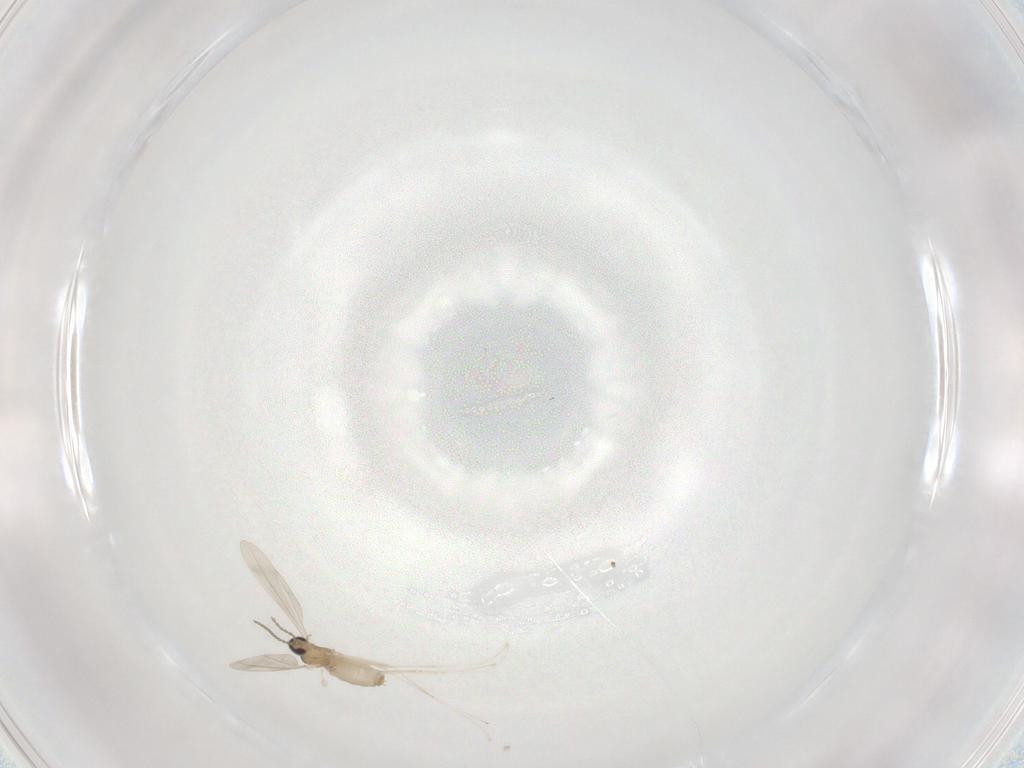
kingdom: Animalia
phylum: Arthropoda
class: Insecta
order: Diptera
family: Cecidomyiidae
